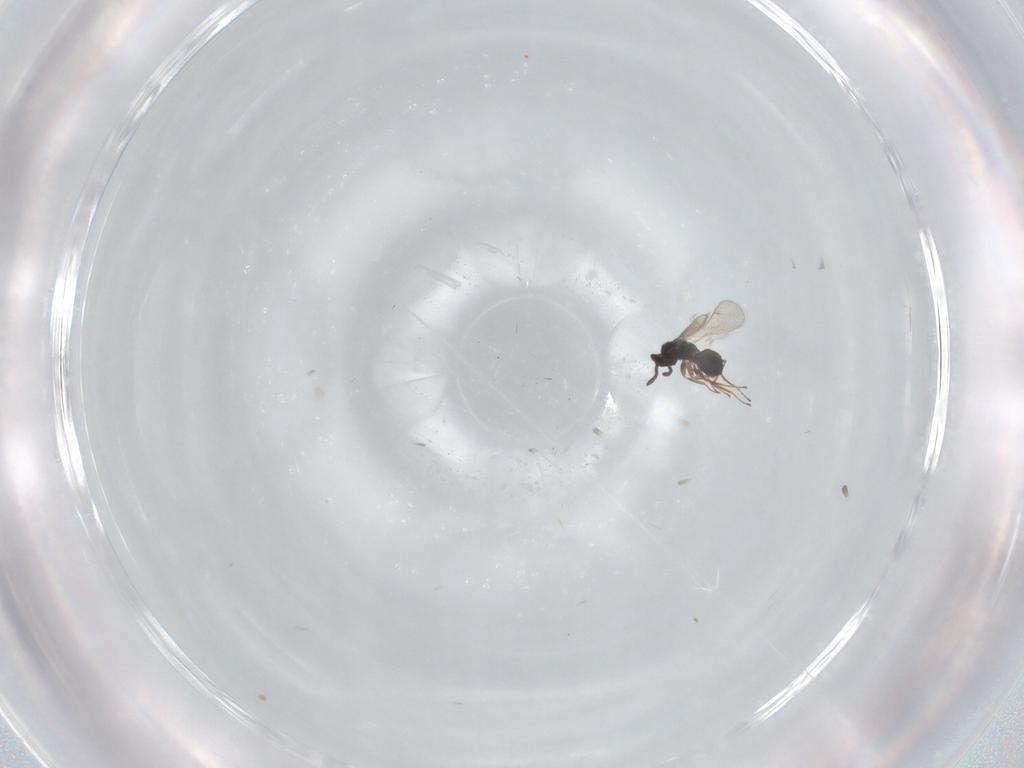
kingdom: Animalia
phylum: Arthropoda
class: Insecta
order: Hymenoptera
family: Scelionidae
